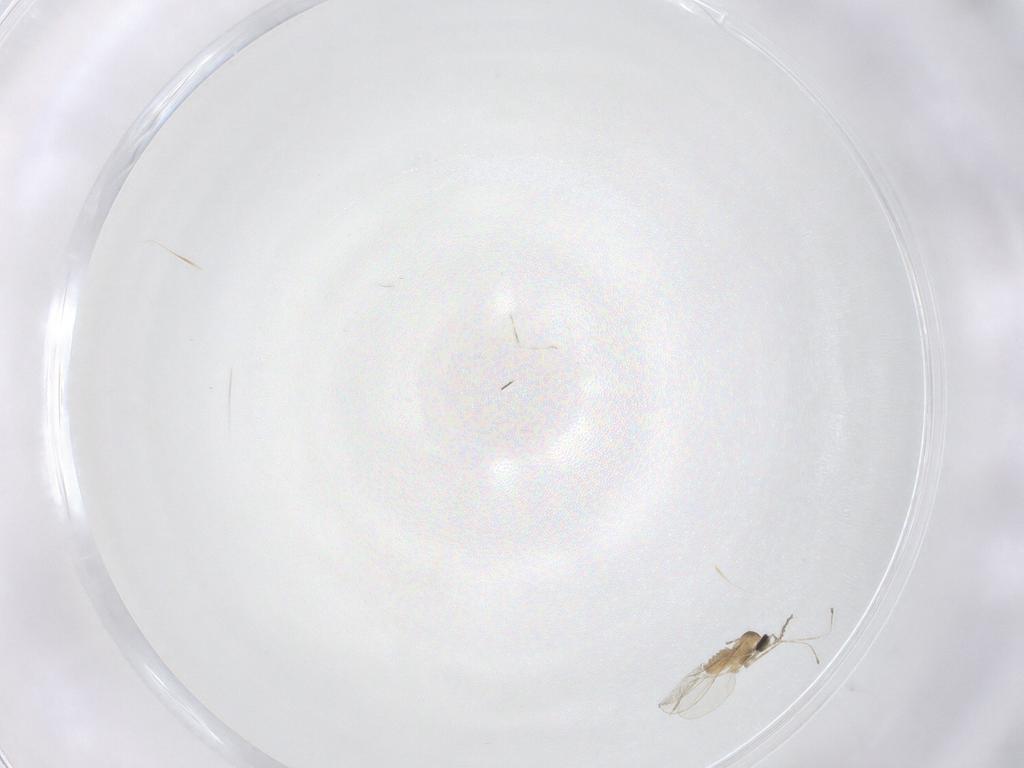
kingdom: Animalia
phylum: Arthropoda
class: Insecta
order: Diptera
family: Cecidomyiidae
